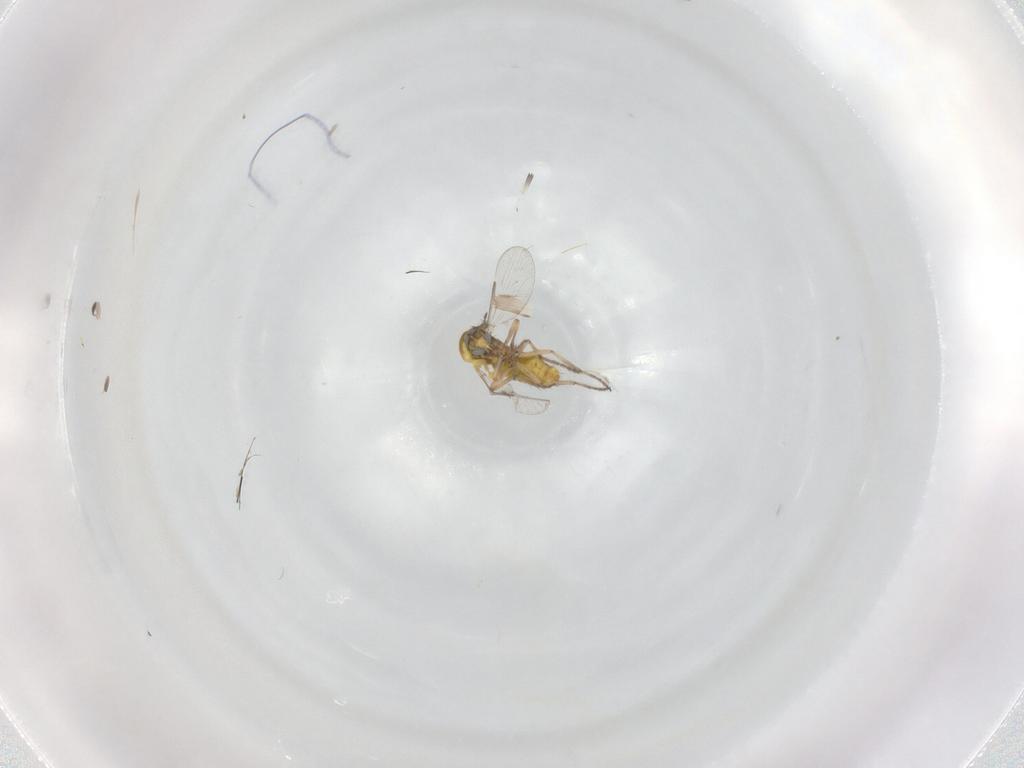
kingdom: Animalia
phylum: Arthropoda
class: Insecta
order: Diptera
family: Ceratopogonidae
